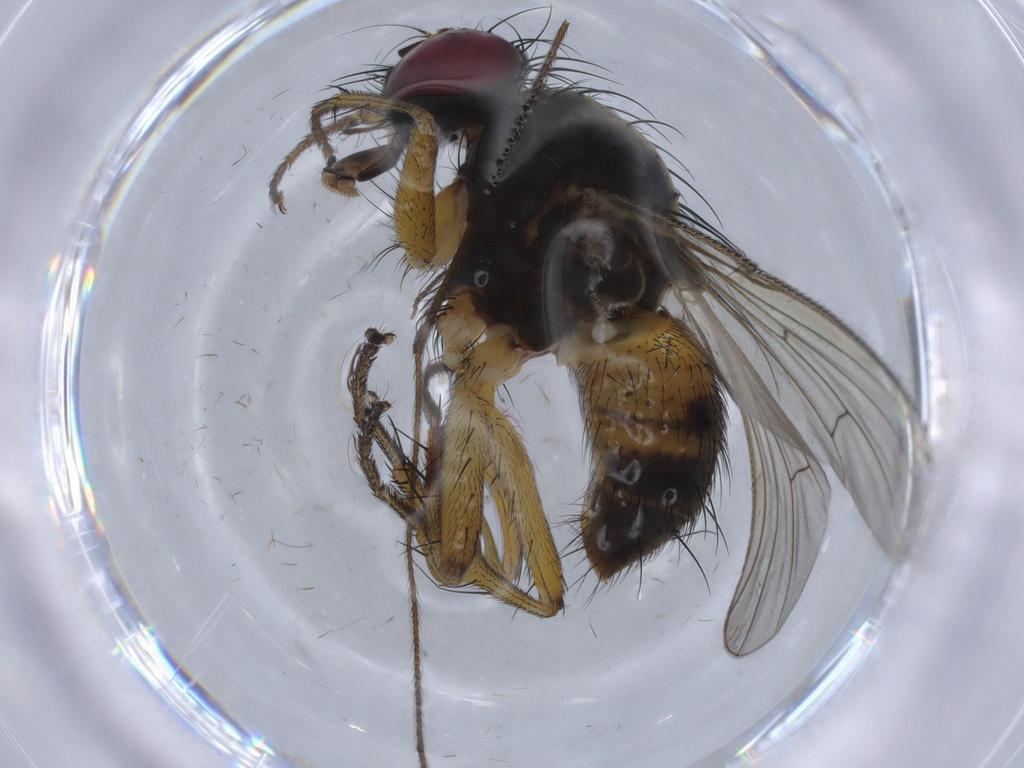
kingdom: Animalia
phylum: Arthropoda
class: Insecta
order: Diptera
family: Muscidae
